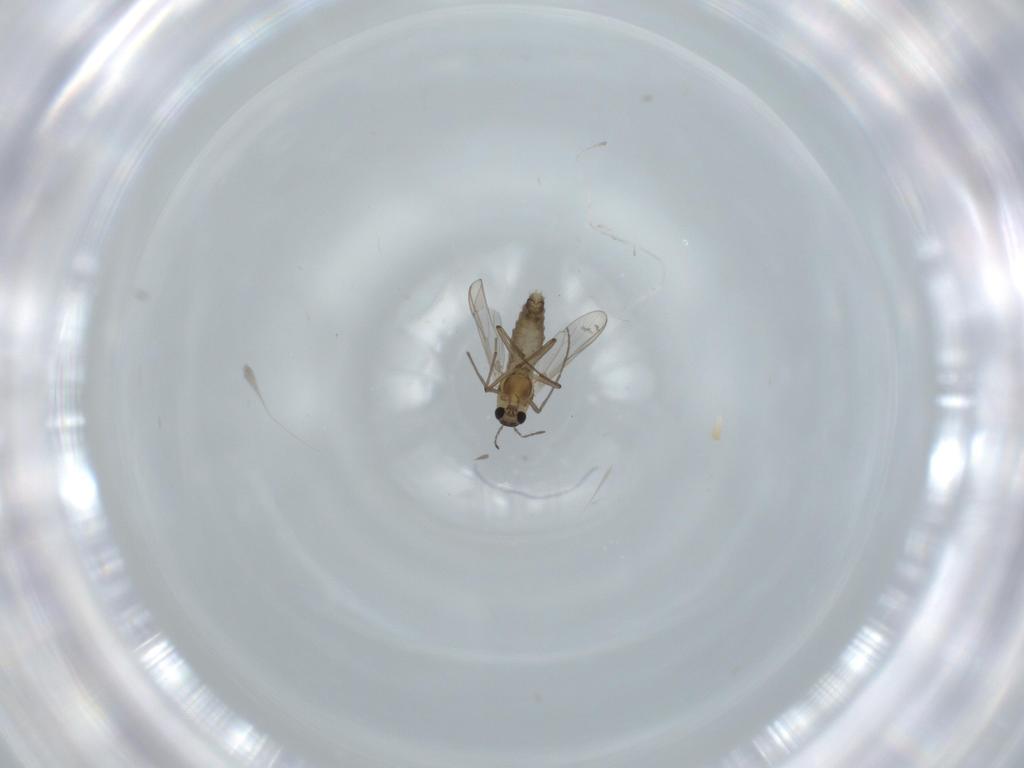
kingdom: Animalia
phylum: Arthropoda
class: Insecta
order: Diptera
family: Chironomidae
